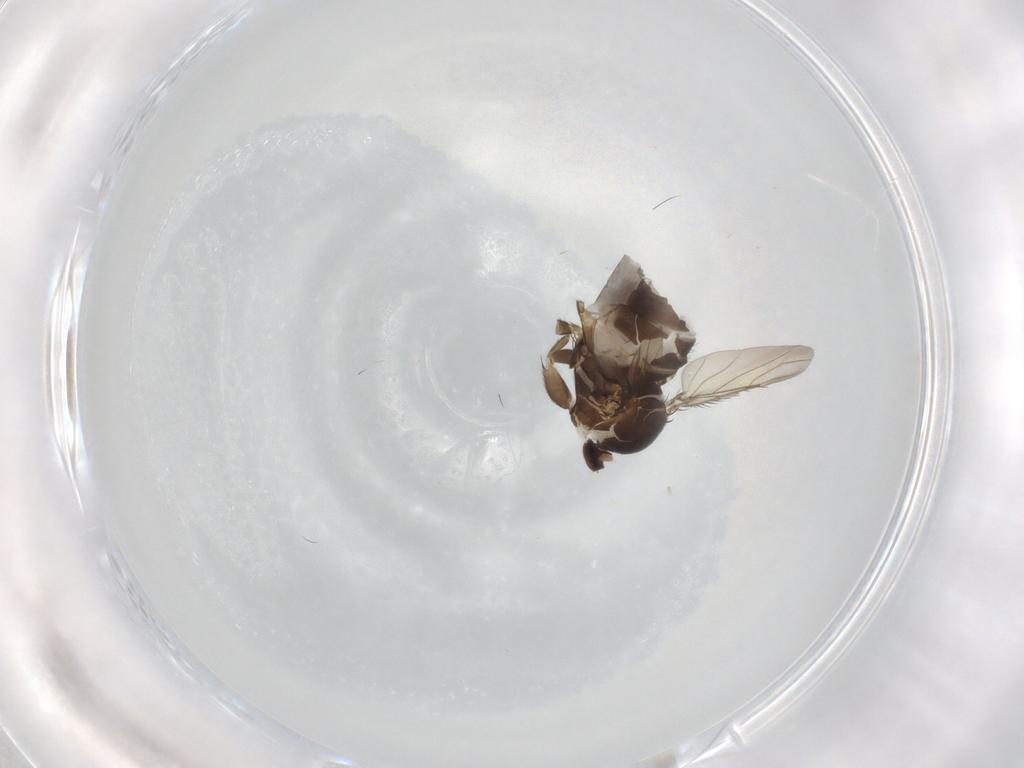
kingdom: Animalia
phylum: Arthropoda
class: Insecta
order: Diptera
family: Phoridae
